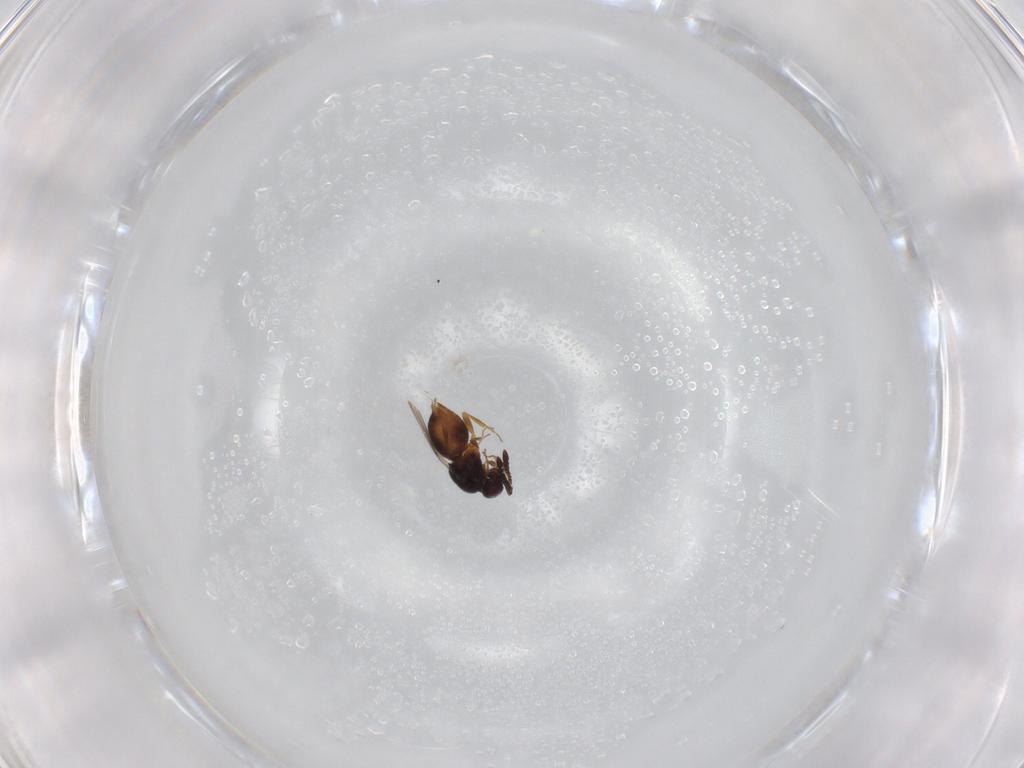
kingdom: Animalia
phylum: Arthropoda
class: Insecta
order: Hymenoptera
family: Ceraphronidae
